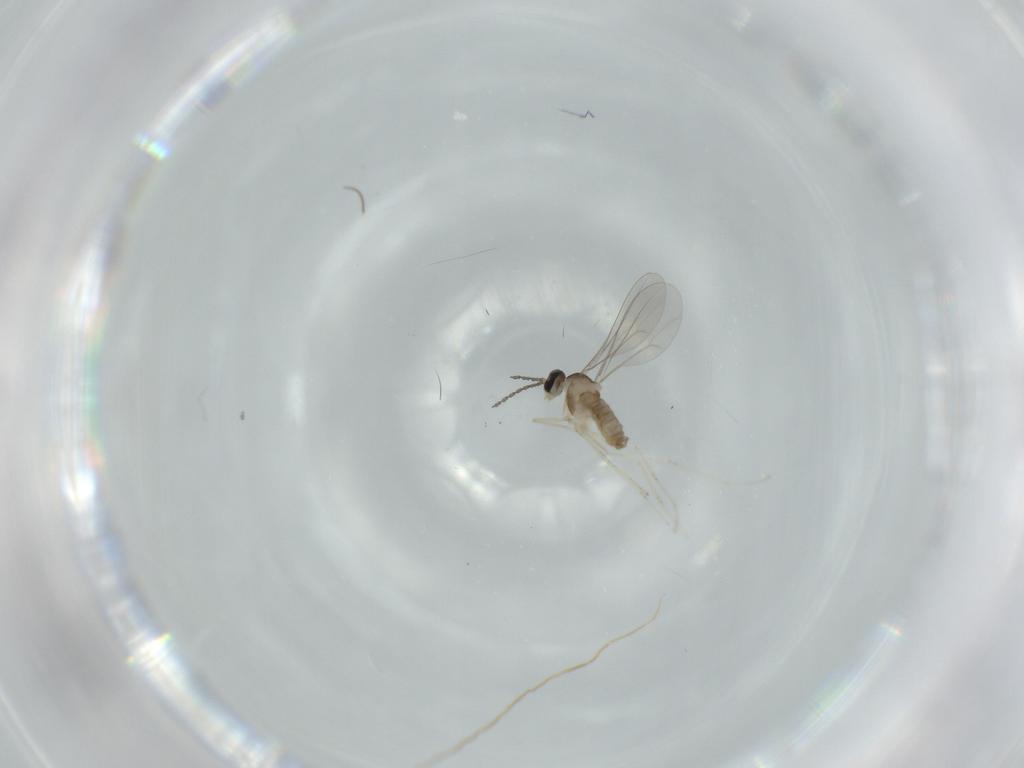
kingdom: Animalia
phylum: Arthropoda
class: Insecta
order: Diptera
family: Cecidomyiidae
